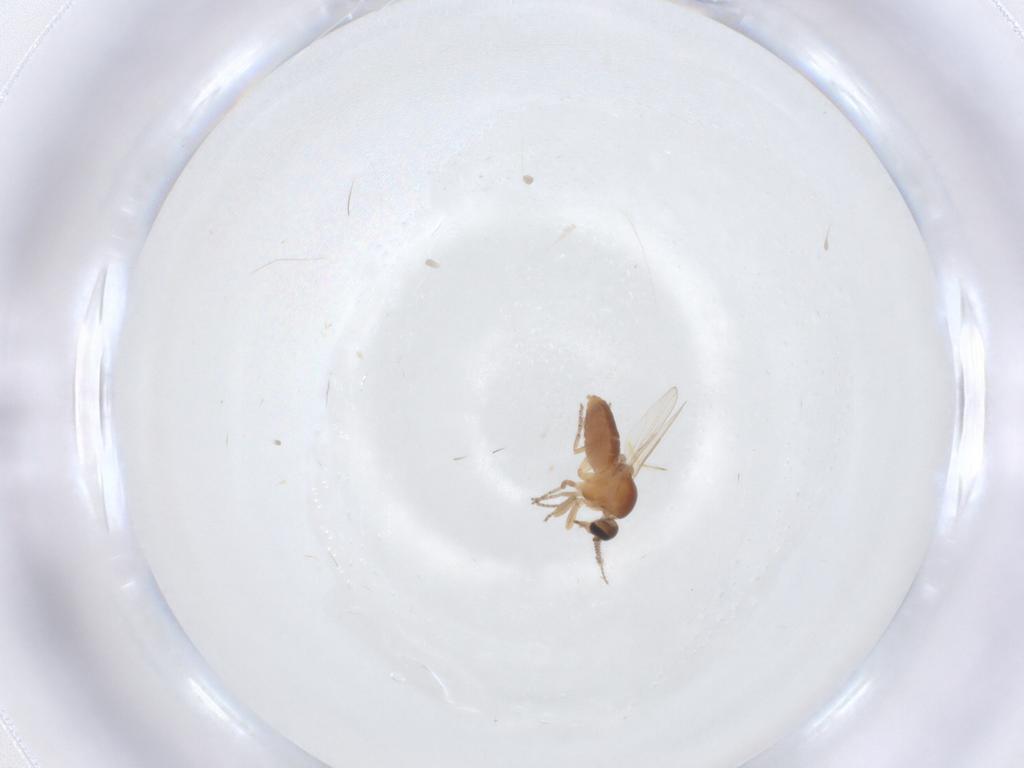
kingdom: Animalia
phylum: Arthropoda
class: Insecta
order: Diptera
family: Ceratopogonidae
